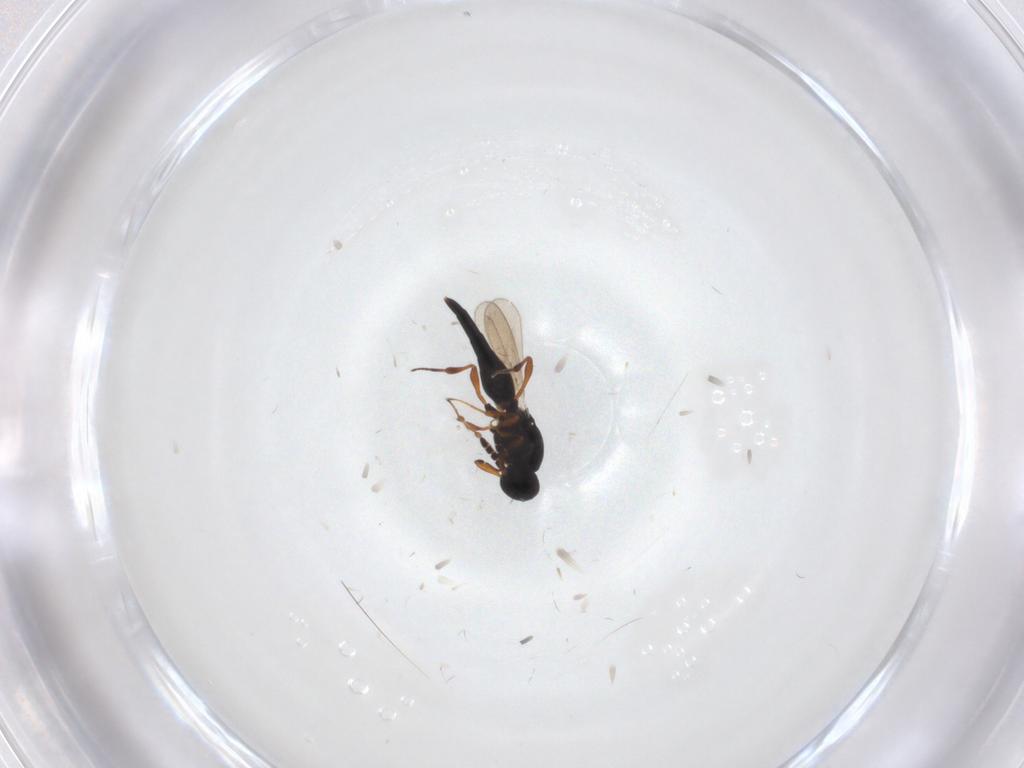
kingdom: Animalia
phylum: Arthropoda
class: Insecta
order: Hymenoptera
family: Platygastridae
